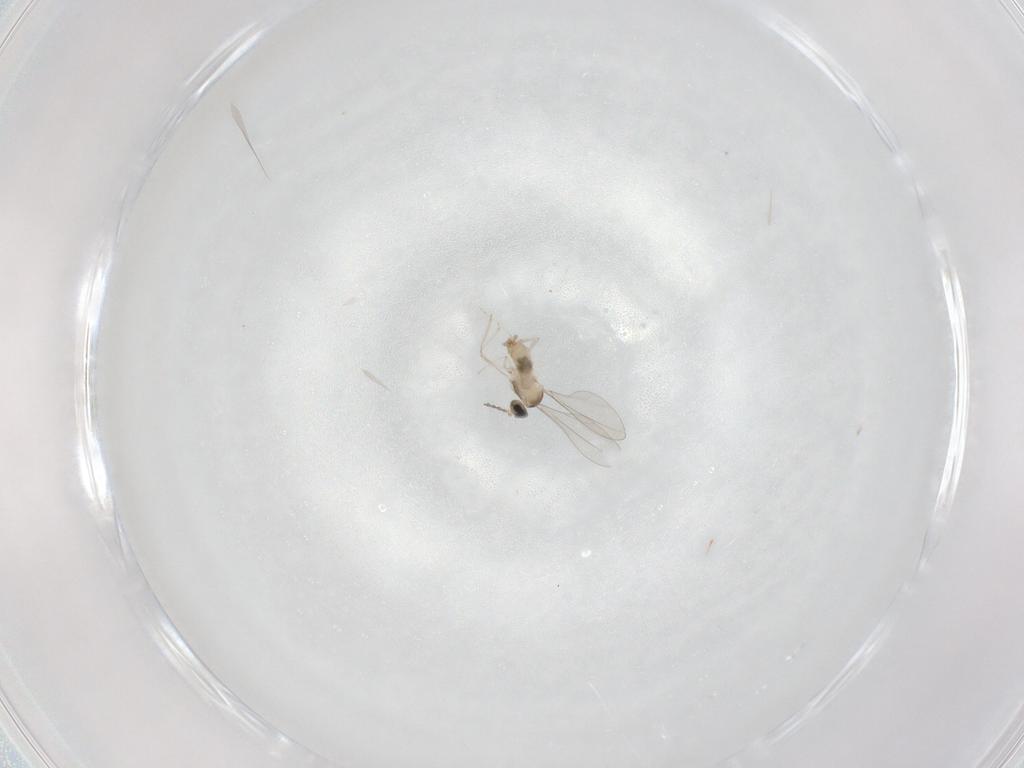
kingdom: Animalia
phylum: Arthropoda
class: Insecta
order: Diptera
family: Cecidomyiidae
